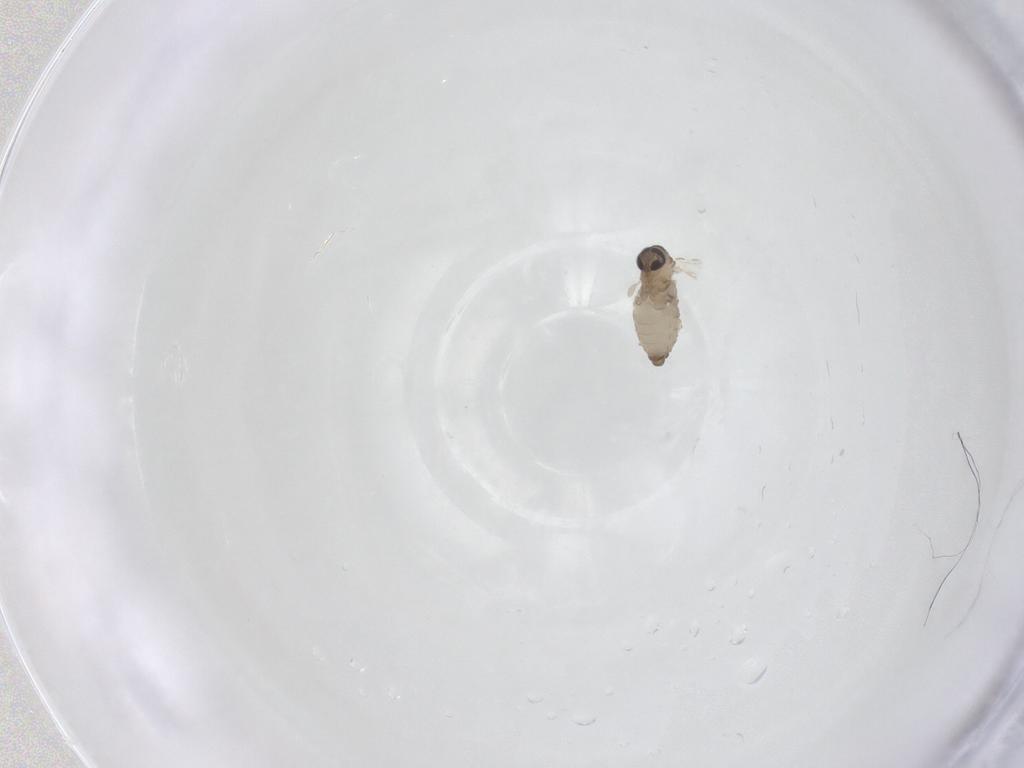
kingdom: Animalia
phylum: Arthropoda
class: Insecta
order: Diptera
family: Psychodidae
